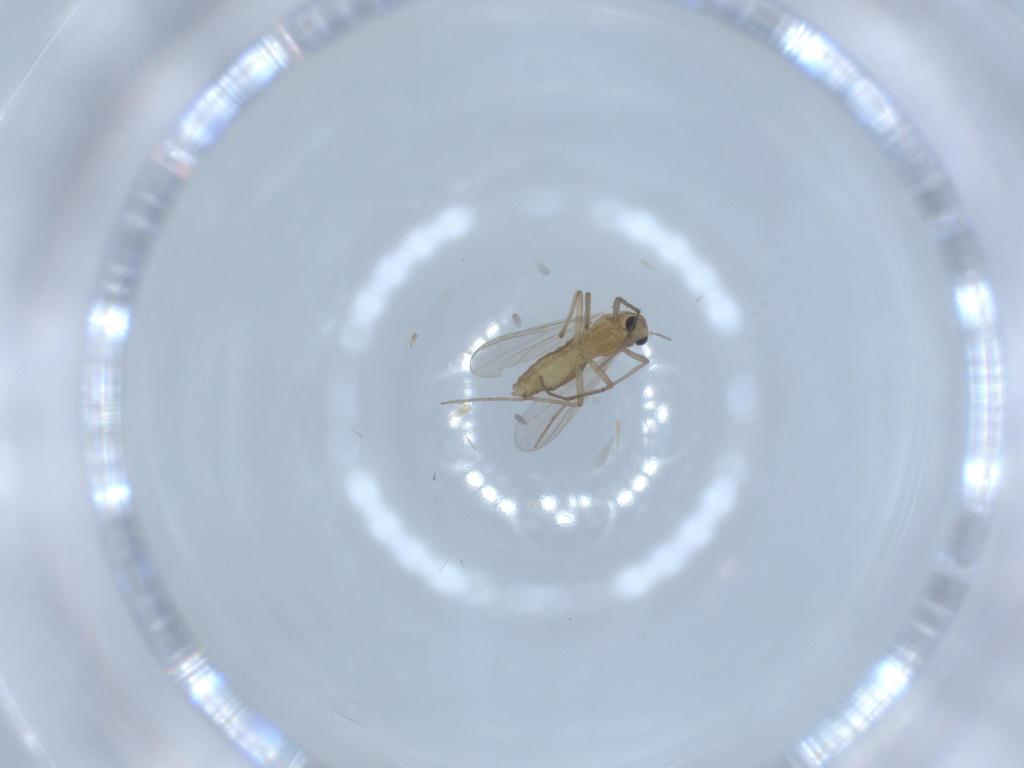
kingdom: Animalia
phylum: Arthropoda
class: Insecta
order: Diptera
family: Chironomidae
